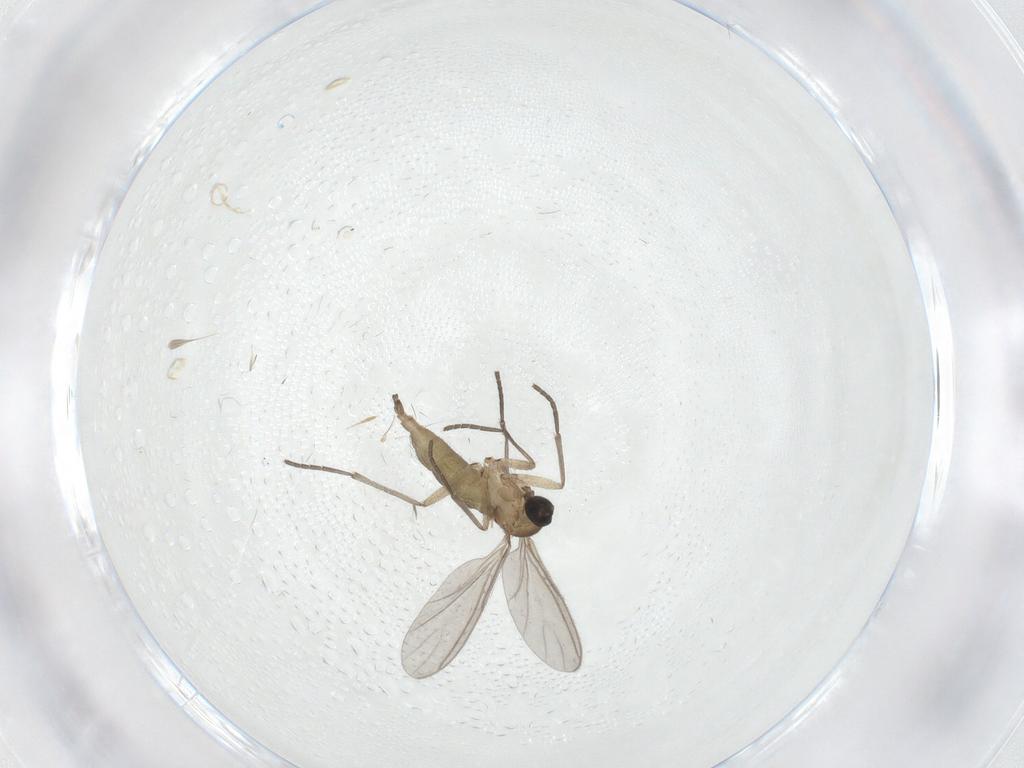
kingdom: Animalia
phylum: Arthropoda
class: Insecta
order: Diptera
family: Sciaridae
